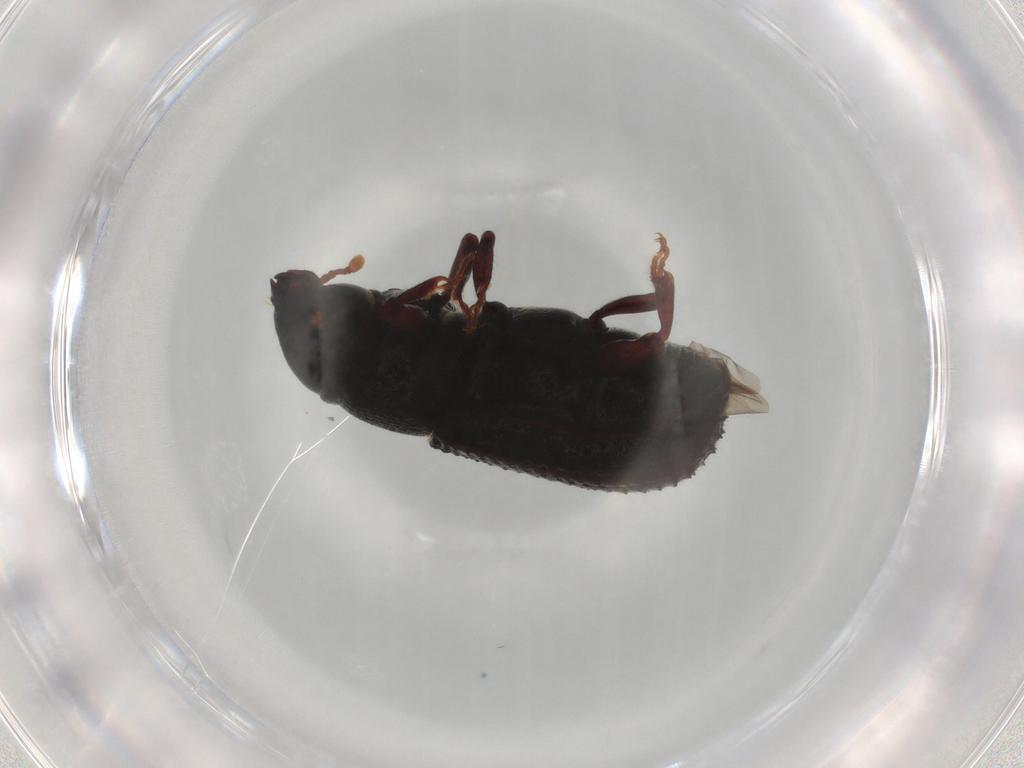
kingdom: Animalia
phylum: Arthropoda
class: Insecta
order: Coleoptera
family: Curculionidae
